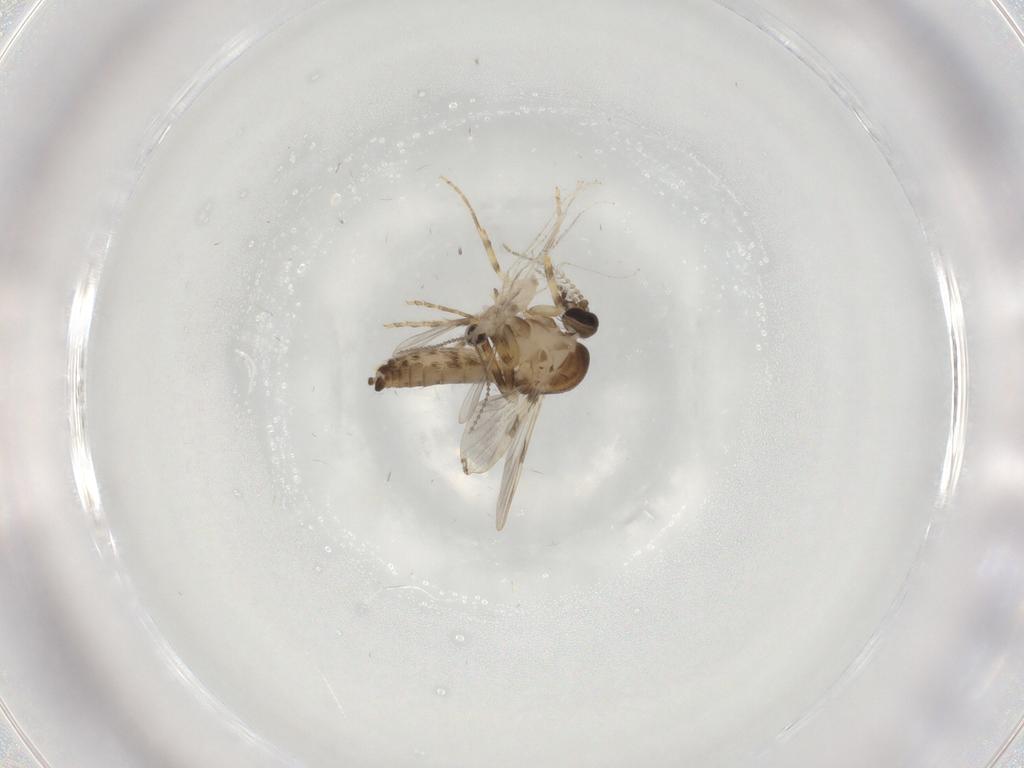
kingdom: Animalia
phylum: Arthropoda
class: Insecta
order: Diptera
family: Ceratopogonidae
